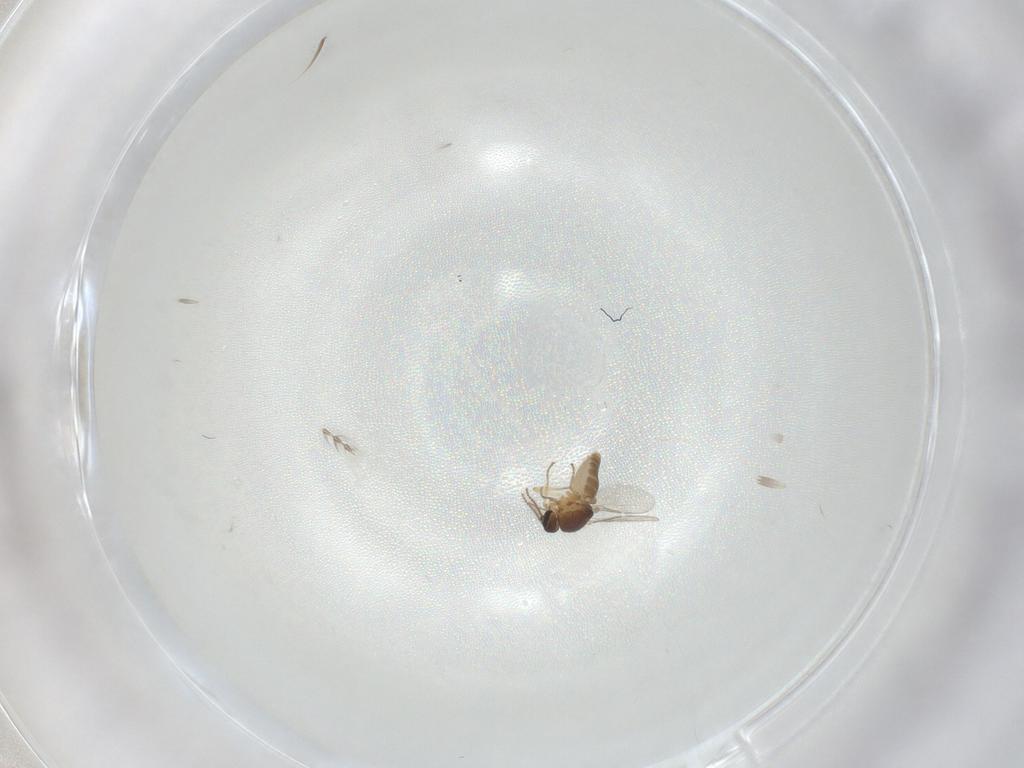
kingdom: Animalia
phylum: Arthropoda
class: Insecta
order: Diptera
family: Ceratopogonidae
